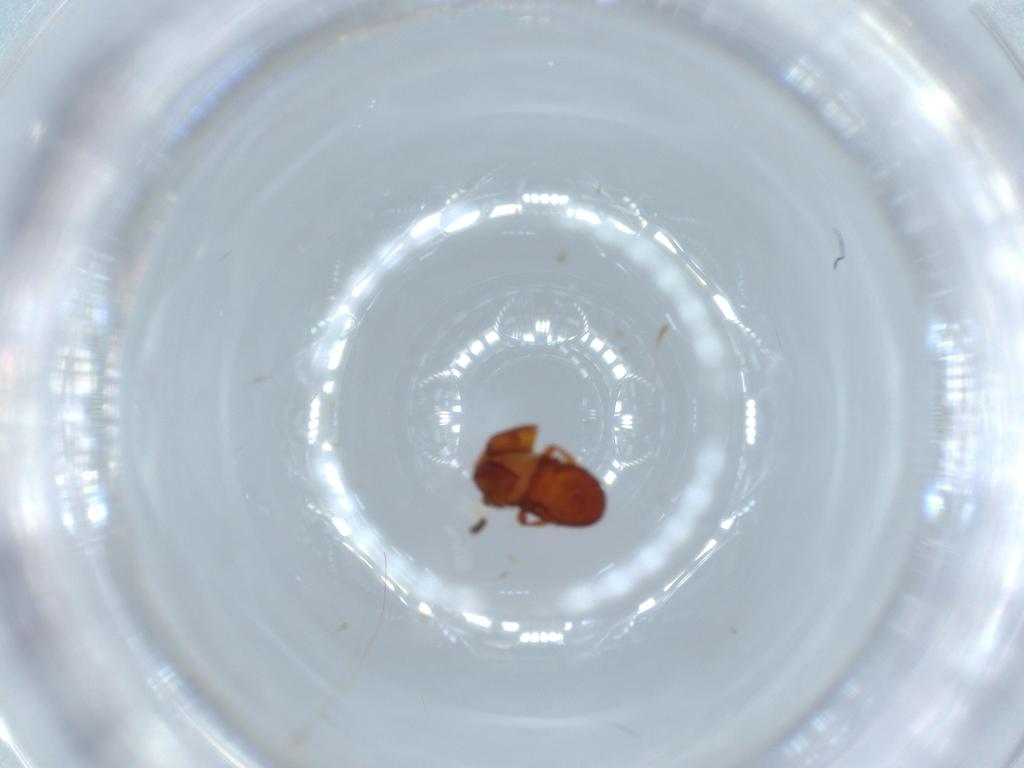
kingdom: Animalia
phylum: Arthropoda
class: Insecta
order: Coleoptera
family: Staphylinidae
